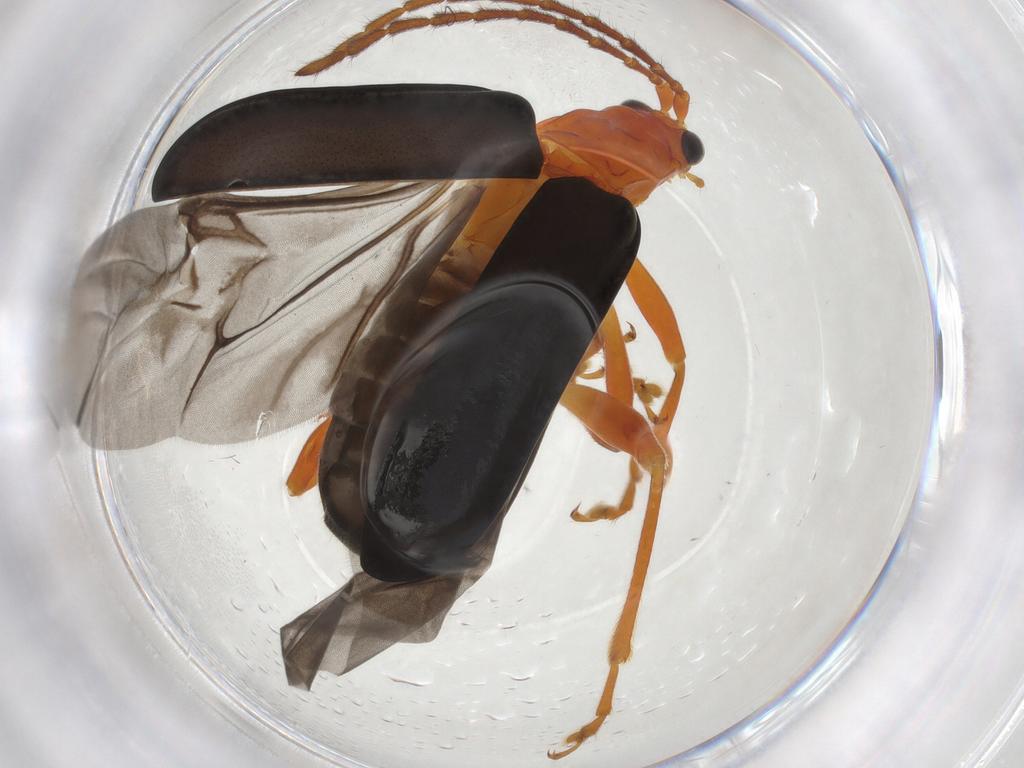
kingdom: Animalia
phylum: Arthropoda
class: Insecta
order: Coleoptera
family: Chrysomelidae
